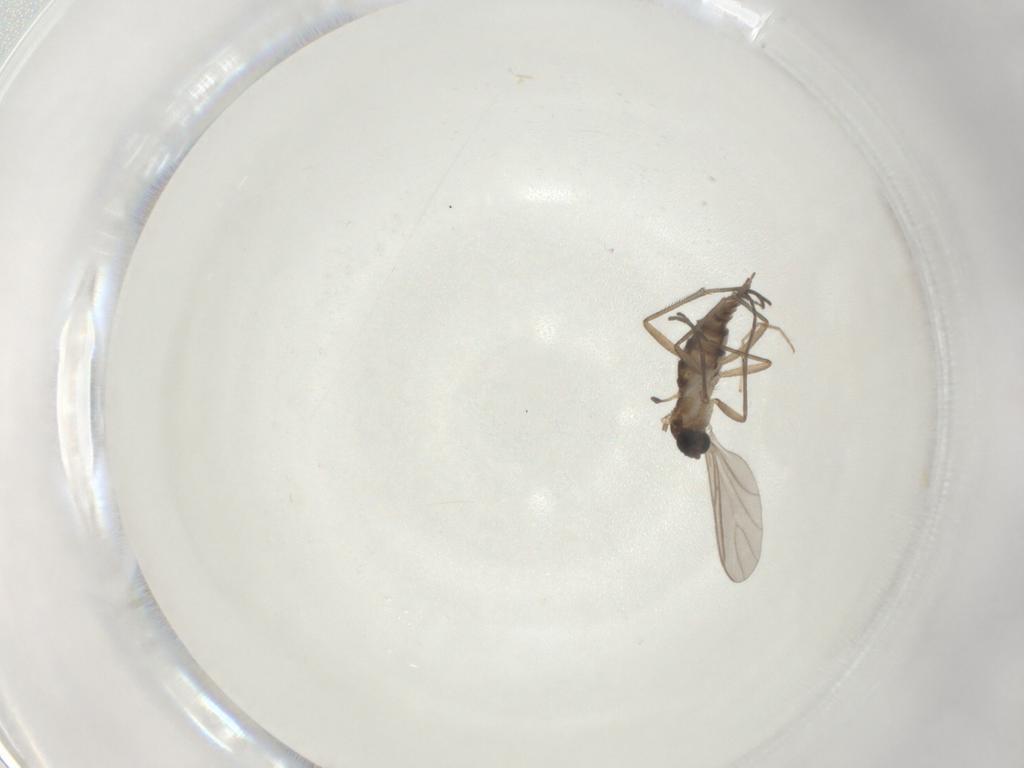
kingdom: Animalia
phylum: Arthropoda
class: Insecta
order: Diptera
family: Sciaridae
